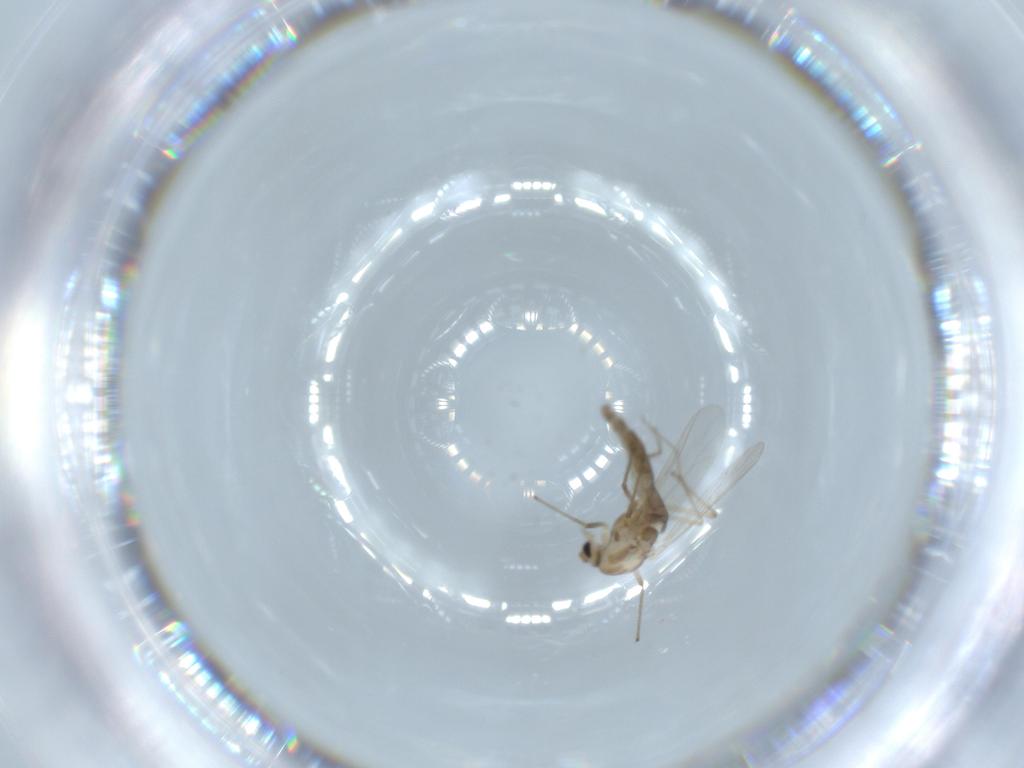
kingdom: Animalia
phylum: Arthropoda
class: Insecta
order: Diptera
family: Chironomidae
